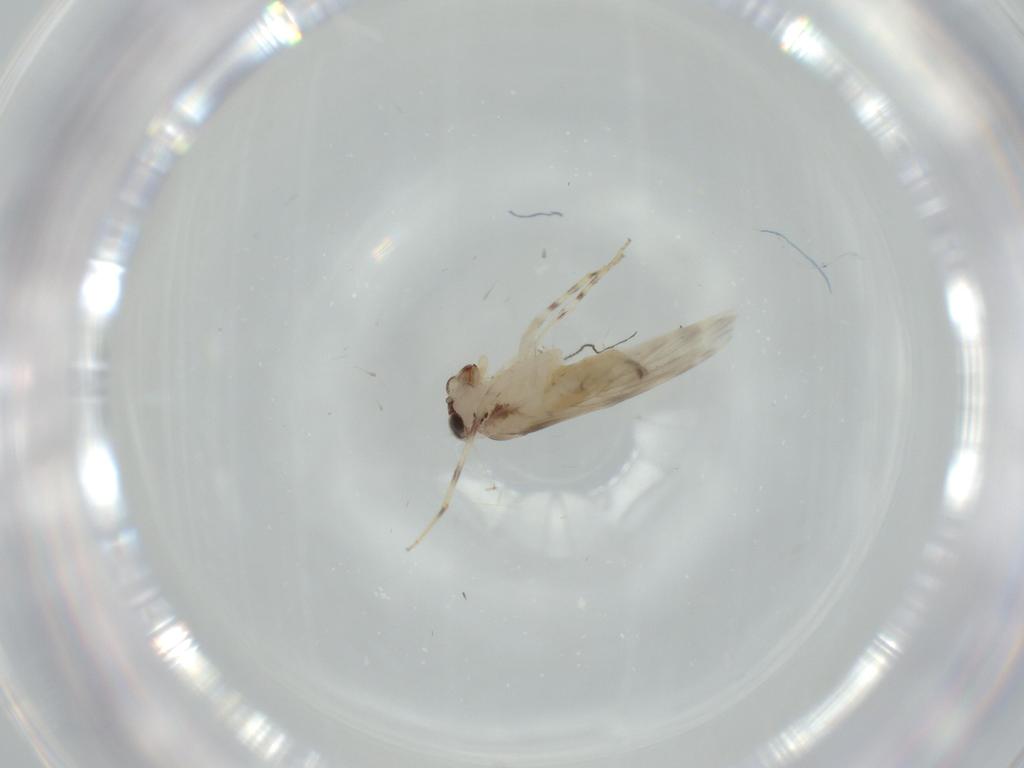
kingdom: Animalia
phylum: Arthropoda
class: Insecta
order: Psocodea
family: Lepidopsocidae
